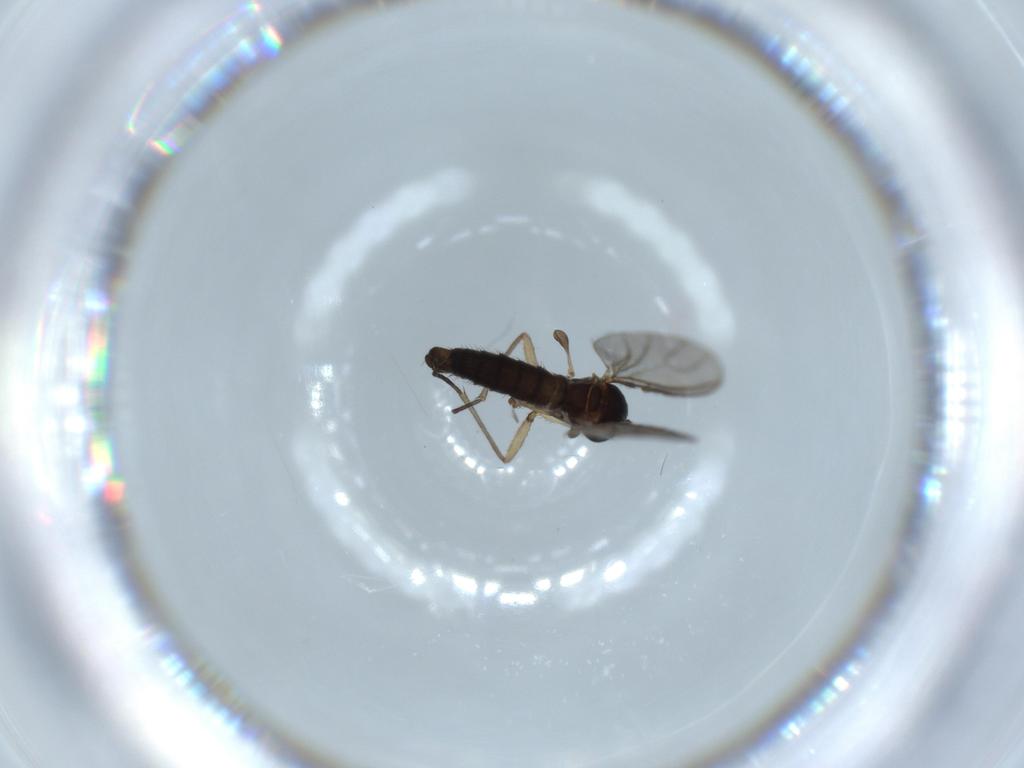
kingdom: Animalia
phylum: Arthropoda
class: Insecta
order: Diptera
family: Sciaridae
